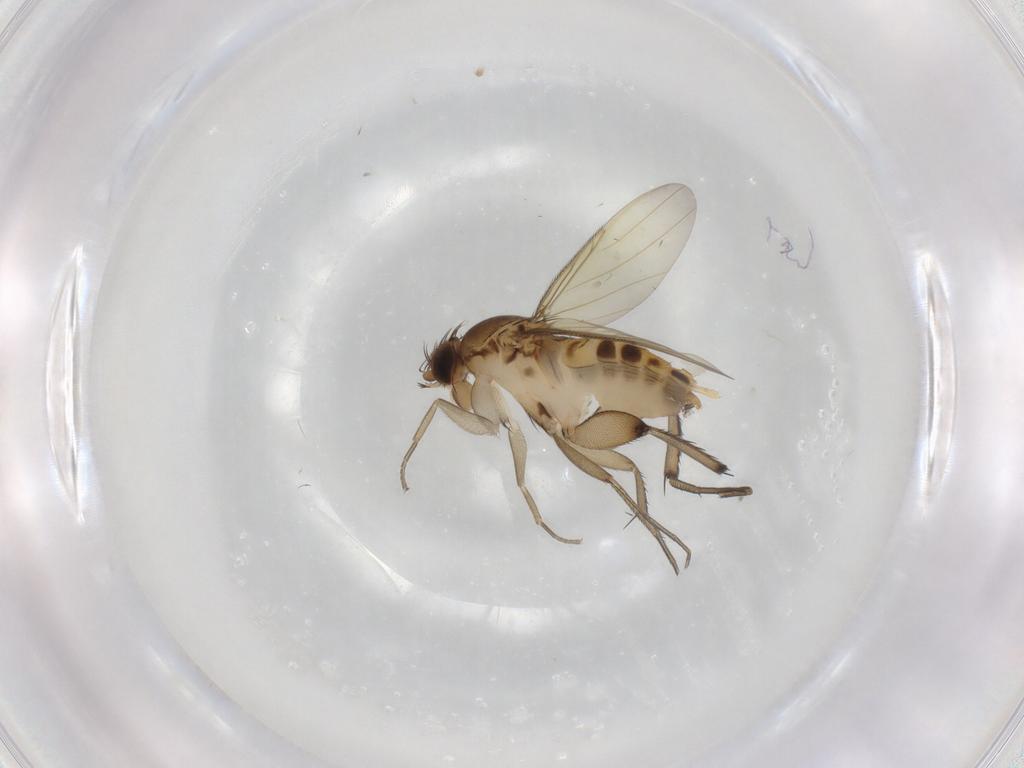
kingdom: Animalia
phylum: Arthropoda
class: Insecta
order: Diptera
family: Phoridae
